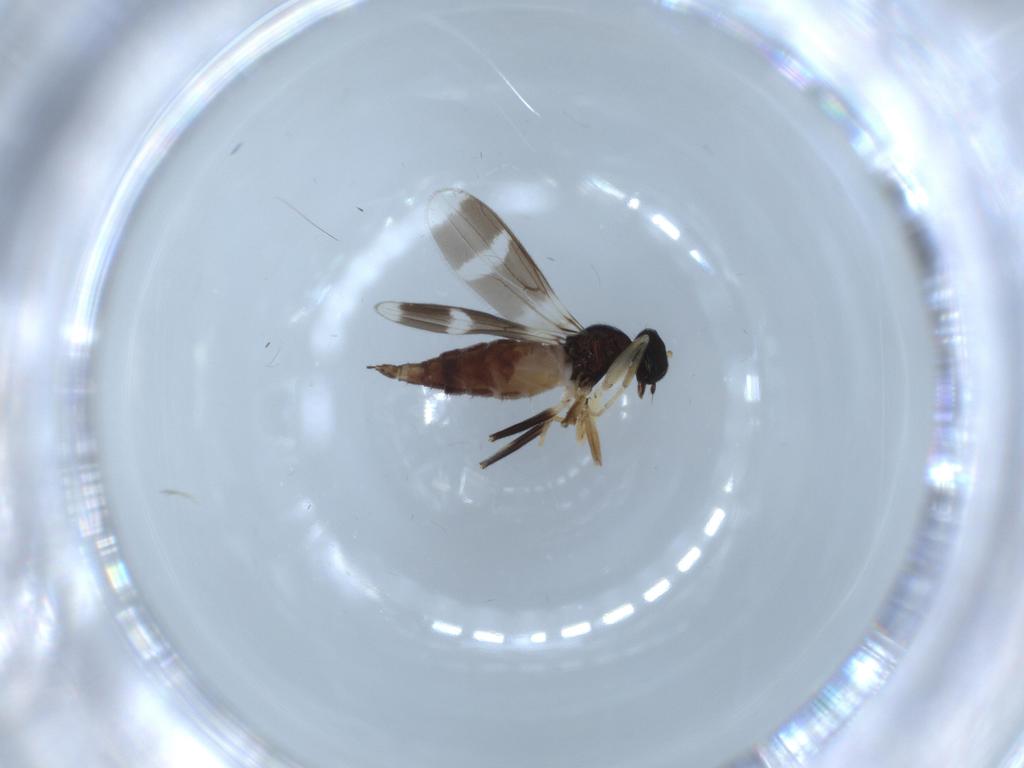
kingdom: Animalia
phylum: Arthropoda
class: Insecta
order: Diptera
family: Hybotidae
